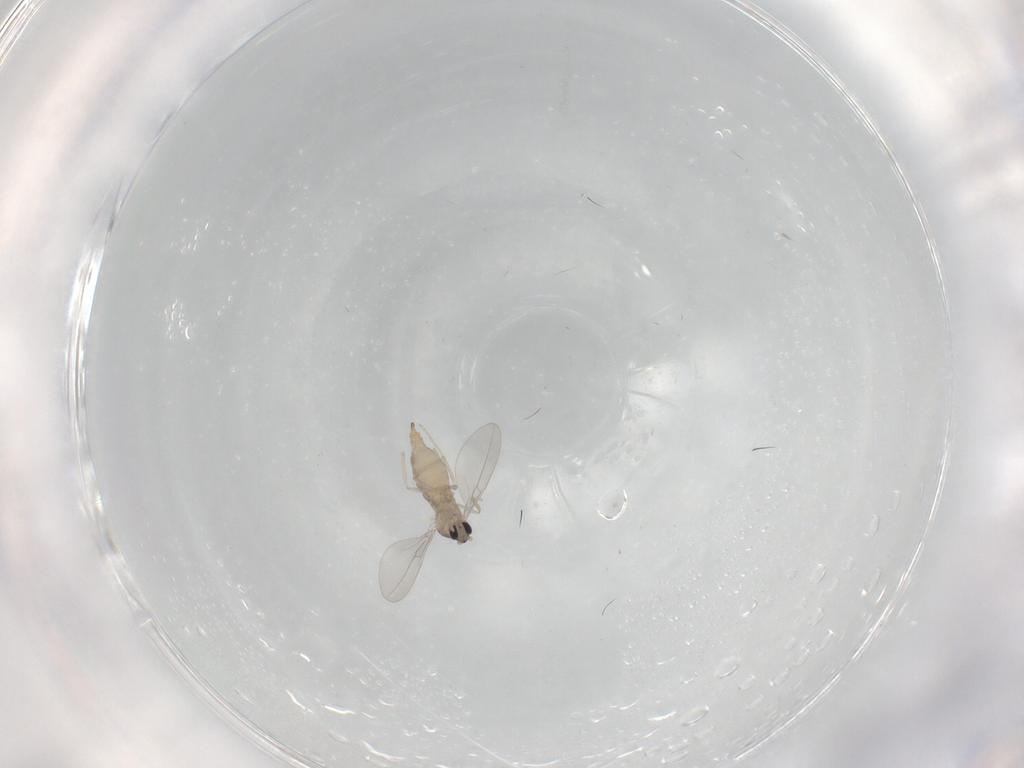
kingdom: Animalia
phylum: Arthropoda
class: Insecta
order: Diptera
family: Cecidomyiidae
